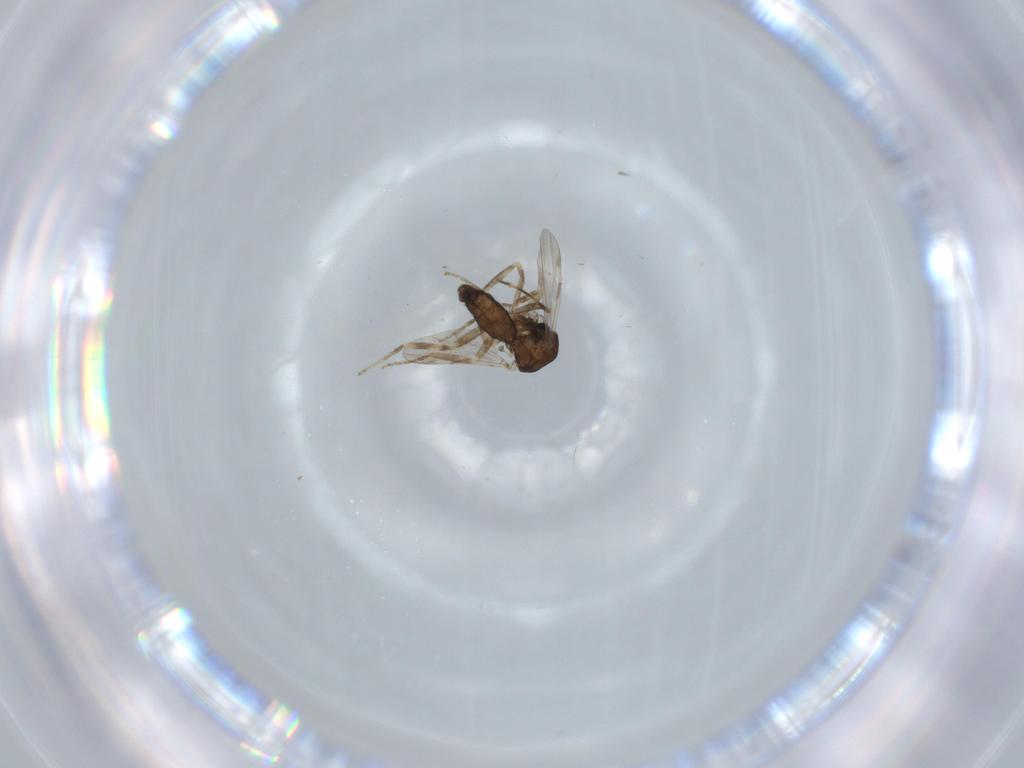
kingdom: Animalia
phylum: Arthropoda
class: Insecta
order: Diptera
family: Ceratopogonidae
